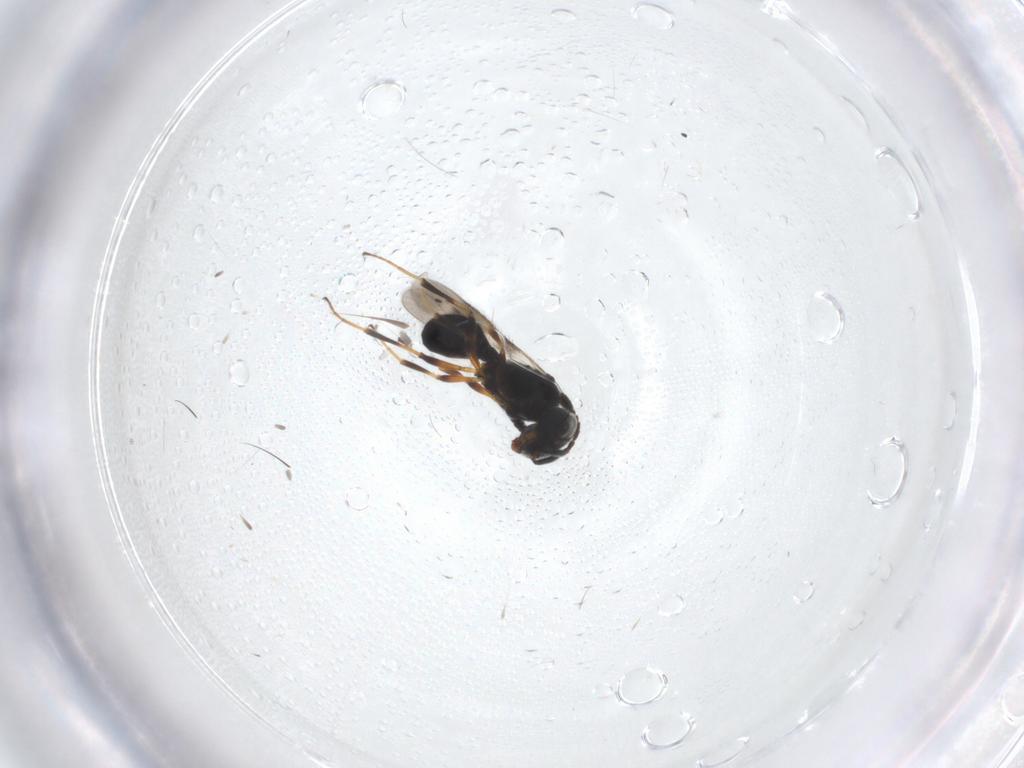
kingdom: Animalia
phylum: Arthropoda
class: Insecta
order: Hymenoptera
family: Scelionidae
